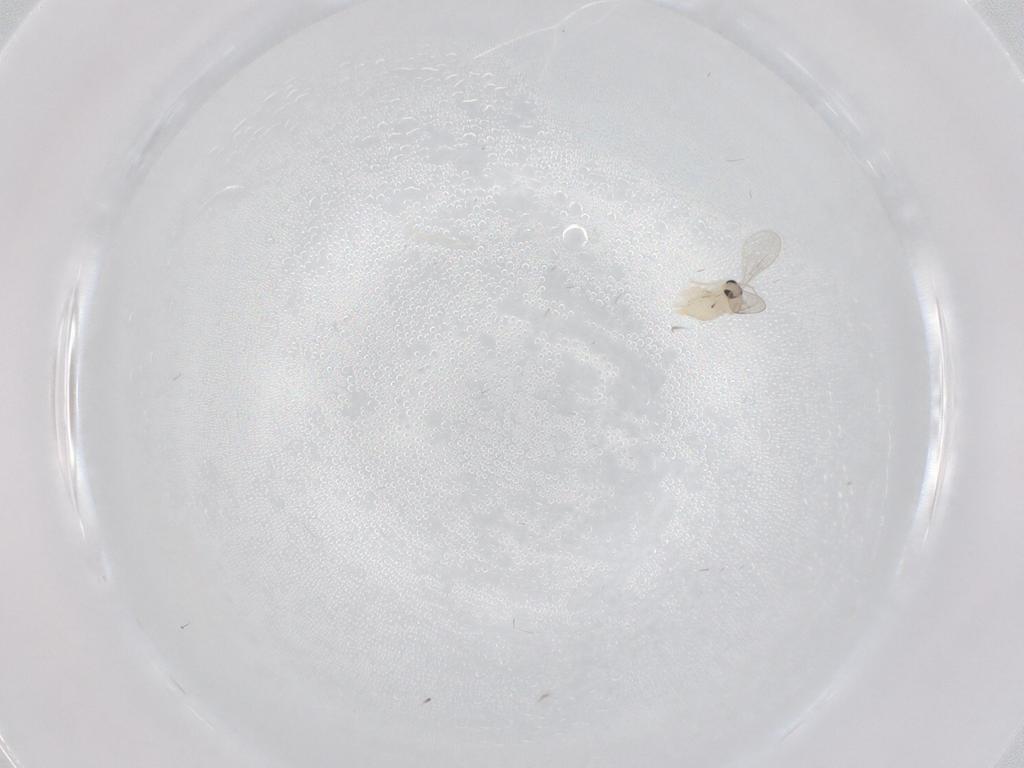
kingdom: Animalia
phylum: Arthropoda
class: Insecta
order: Diptera
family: Cecidomyiidae
